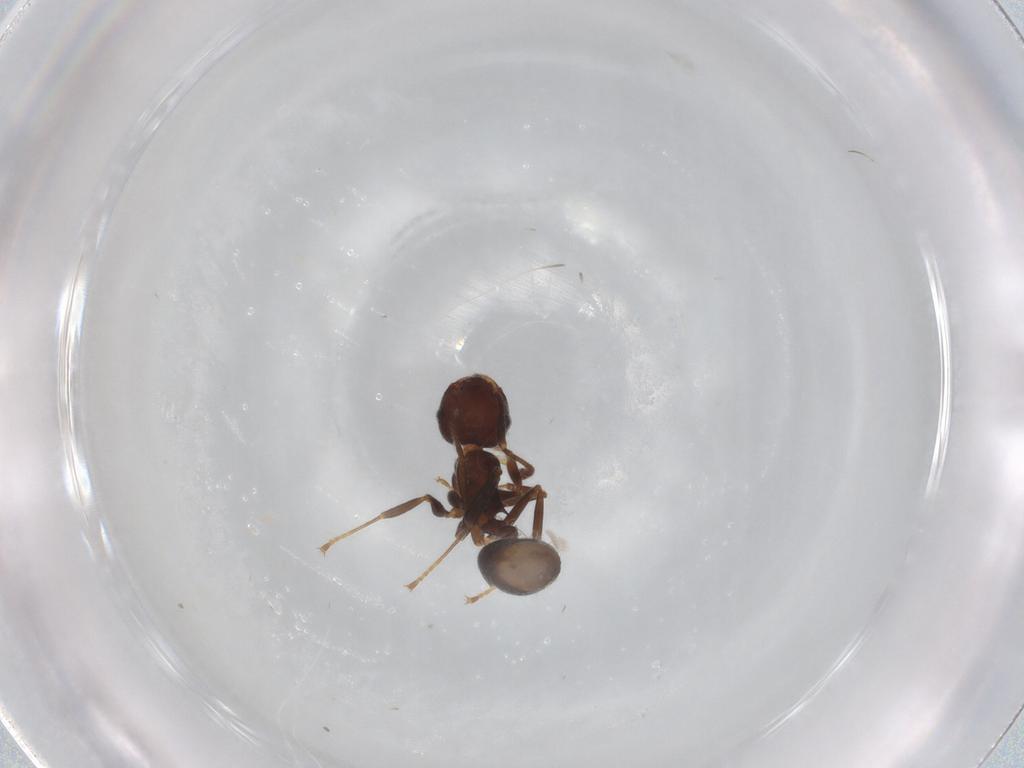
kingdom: Animalia
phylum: Arthropoda
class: Insecta
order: Hymenoptera
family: Formicidae
